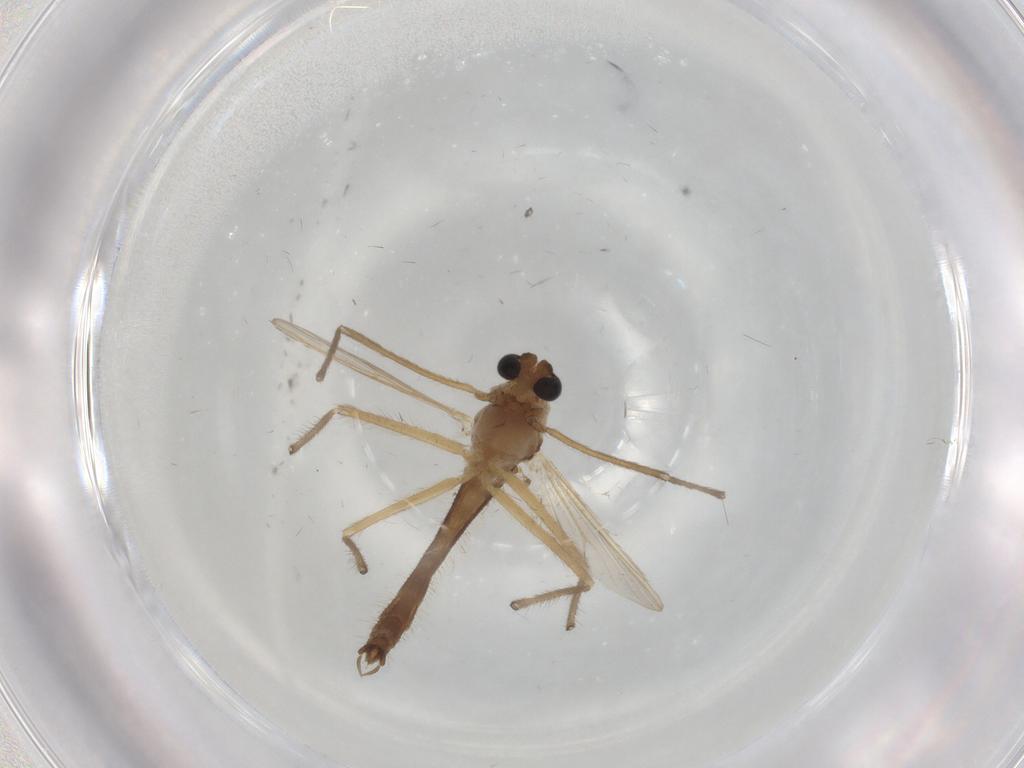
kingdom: Animalia
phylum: Arthropoda
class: Insecta
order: Diptera
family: Chironomidae
